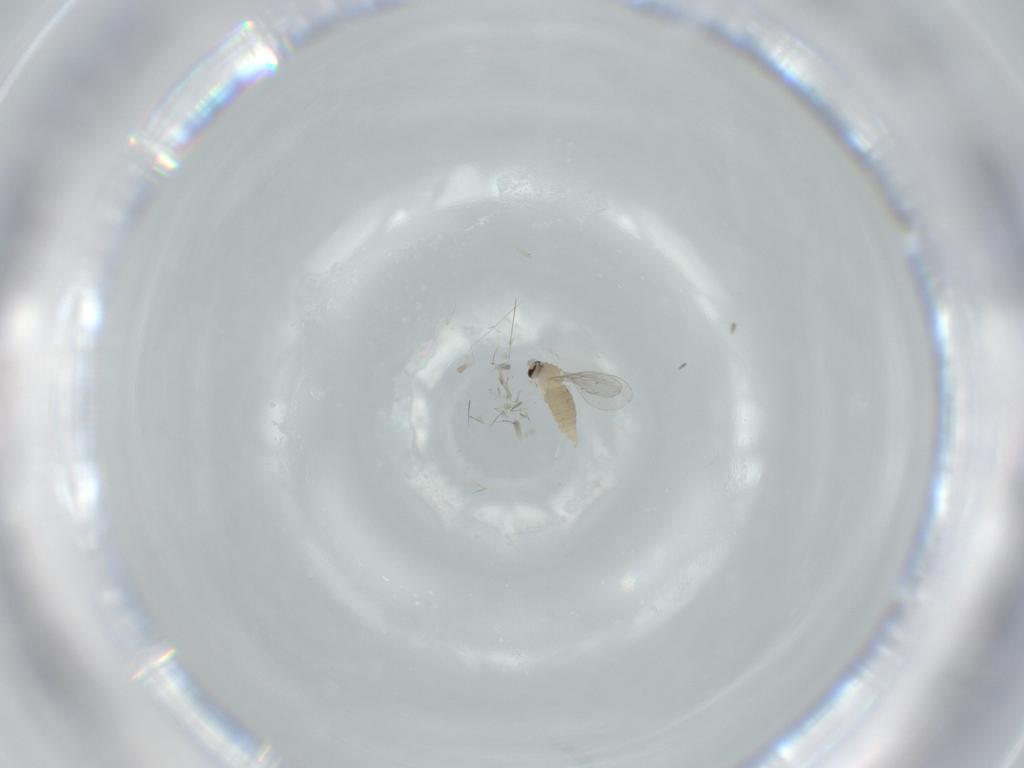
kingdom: Animalia
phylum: Arthropoda
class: Insecta
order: Diptera
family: Cecidomyiidae
